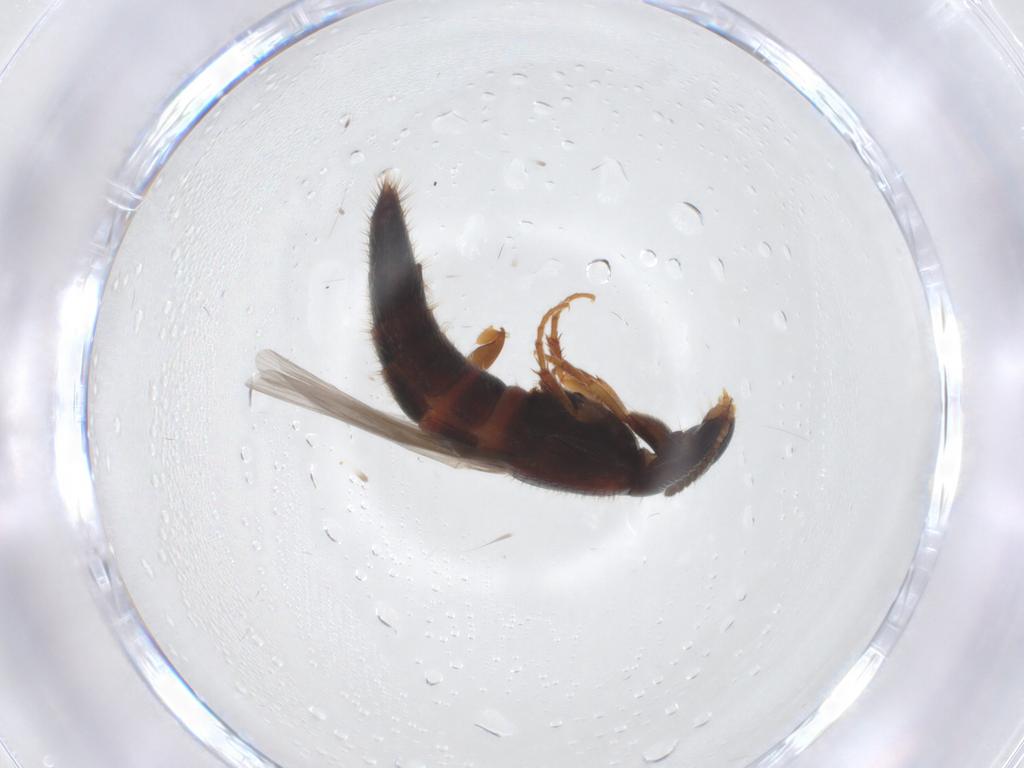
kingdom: Animalia
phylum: Arthropoda
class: Insecta
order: Coleoptera
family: Staphylinidae
